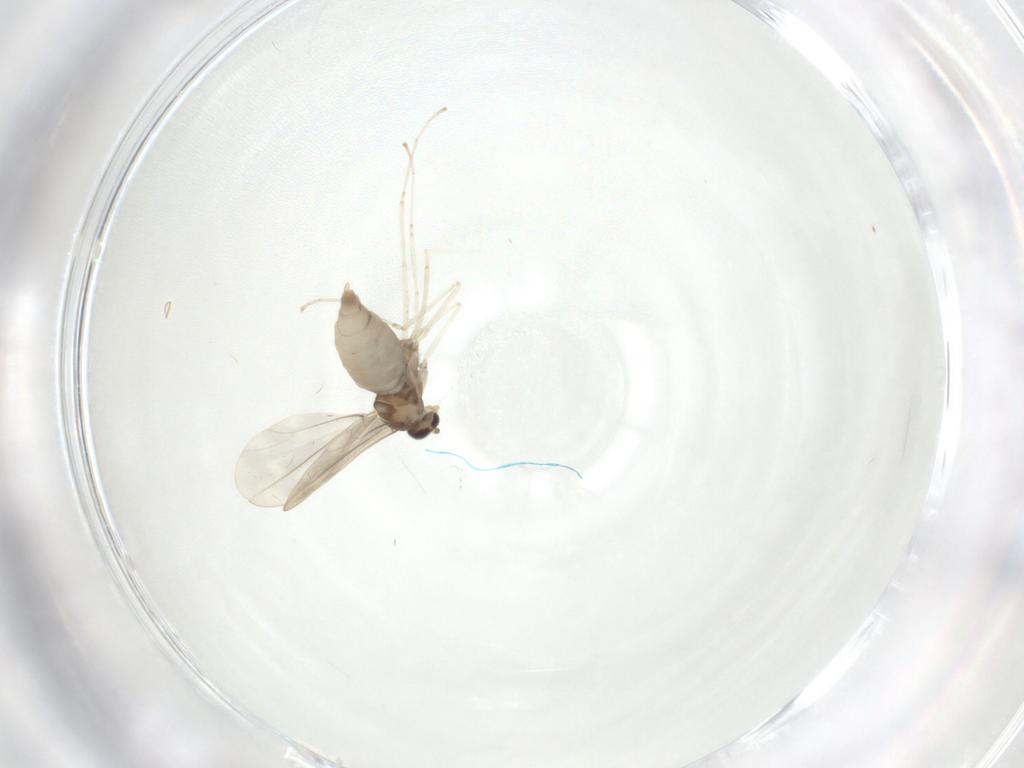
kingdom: Animalia
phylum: Arthropoda
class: Insecta
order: Diptera
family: Cecidomyiidae
